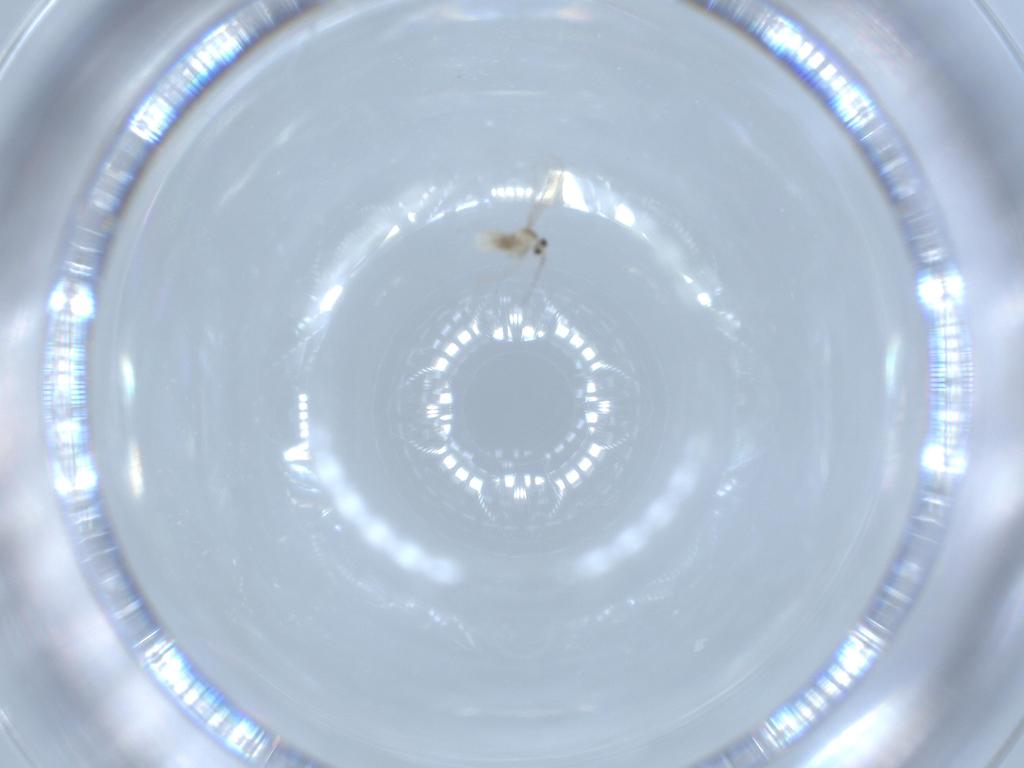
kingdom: Animalia
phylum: Arthropoda
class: Insecta
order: Diptera
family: Cecidomyiidae
